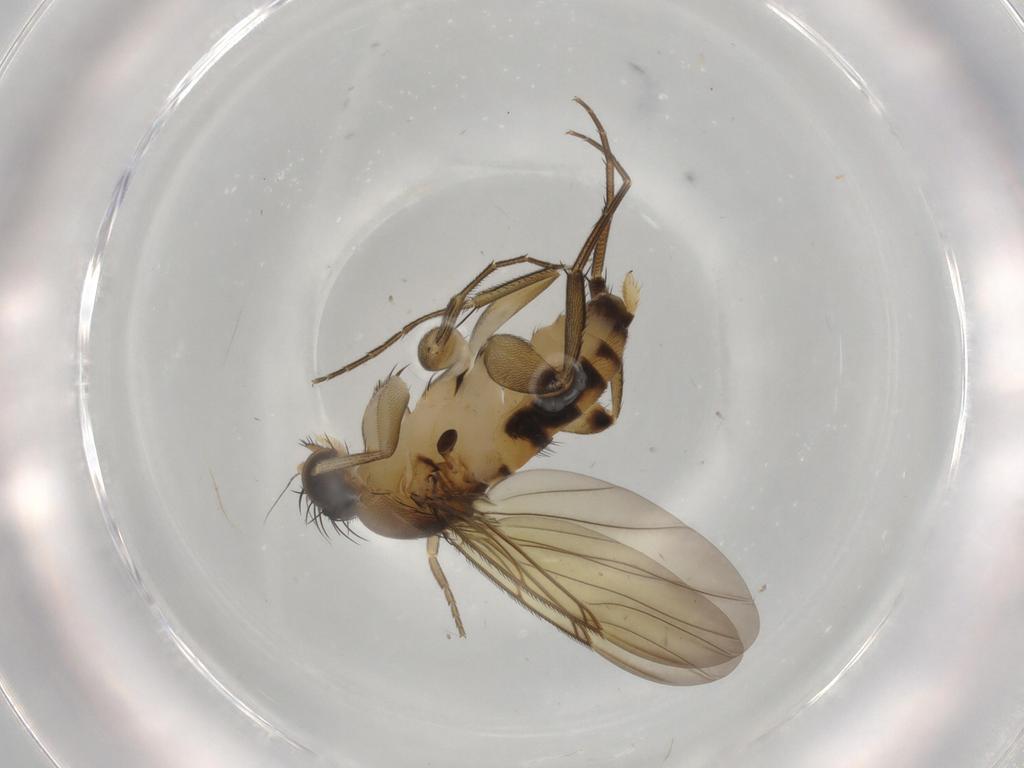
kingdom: Animalia
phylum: Arthropoda
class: Insecta
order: Diptera
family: Phoridae
